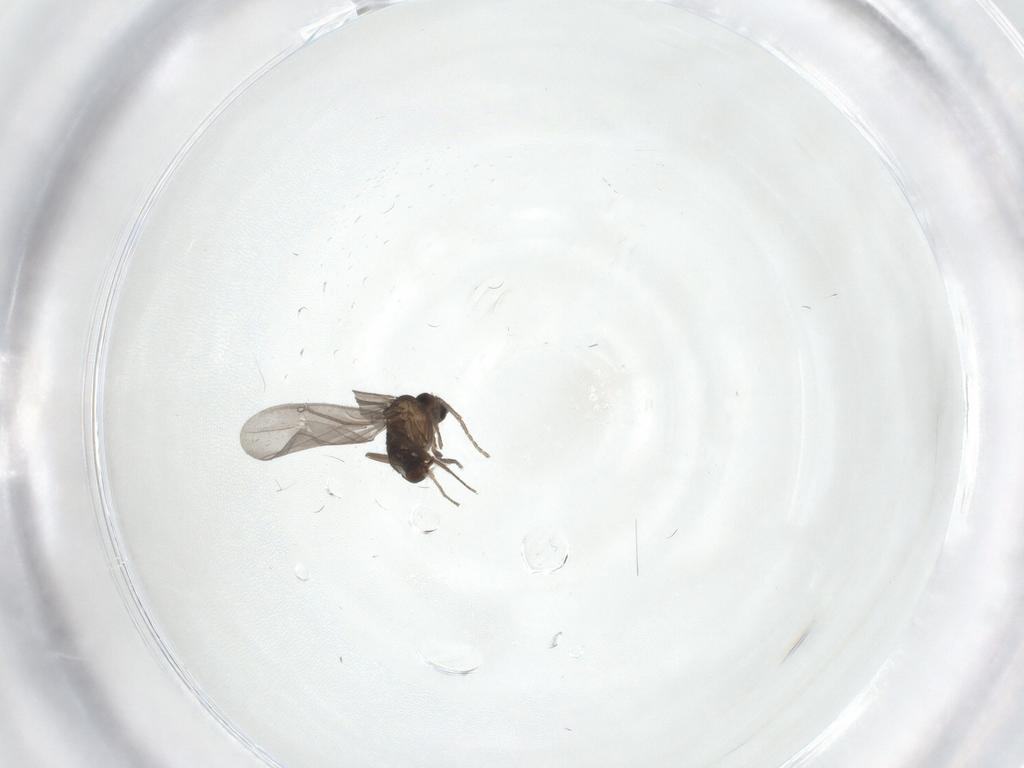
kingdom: Animalia
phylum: Arthropoda
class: Insecta
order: Diptera
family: Phoridae
